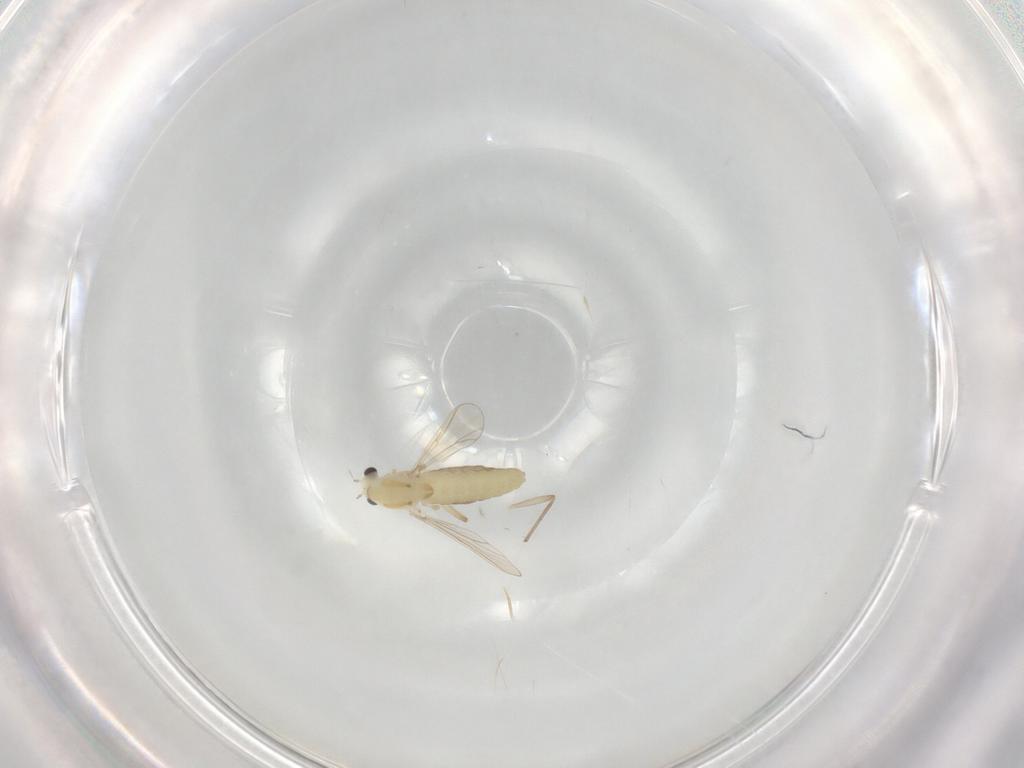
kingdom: Animalia
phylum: Arthropoda
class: Insecta
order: Diptera
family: Chironomidae
